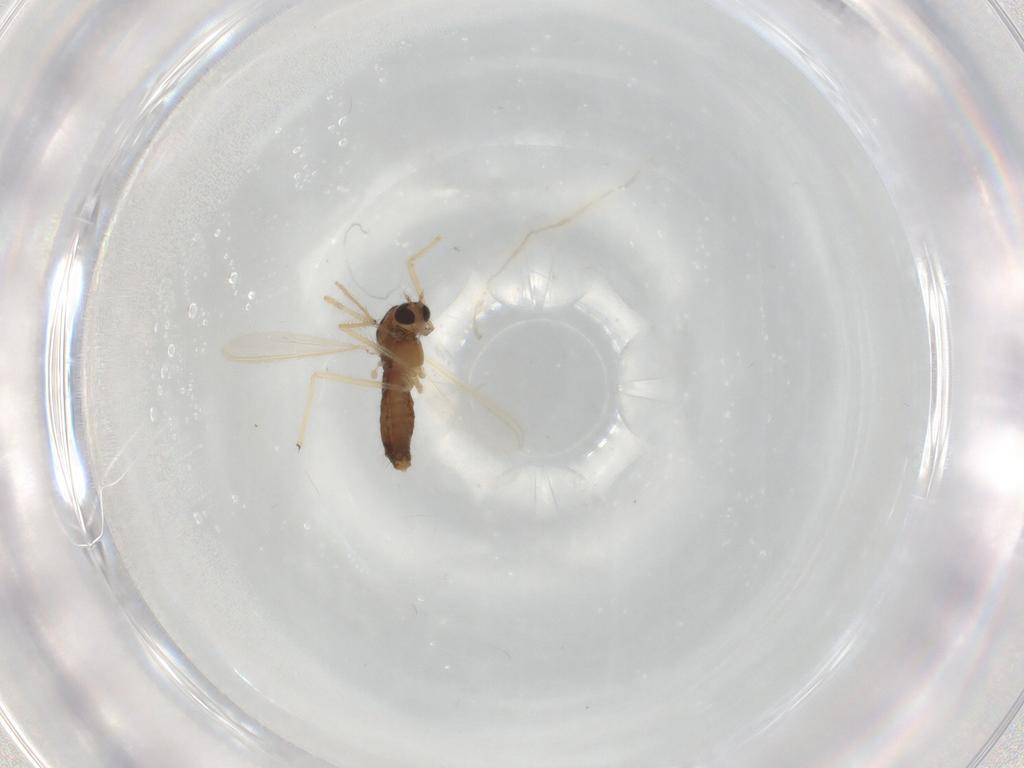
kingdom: Animalia
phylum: Arthropoda
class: Insecta
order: Diptera
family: Chironomidae
